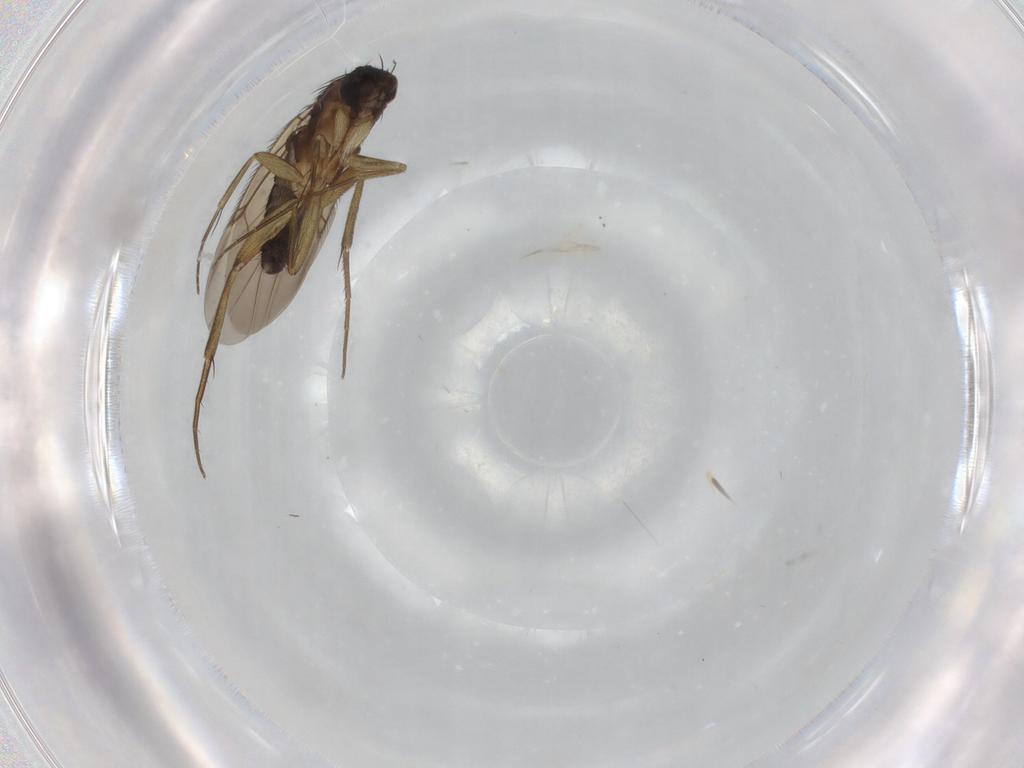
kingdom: Animalia
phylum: Arthropoda
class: Insecta
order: Diptera
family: Phoridae
